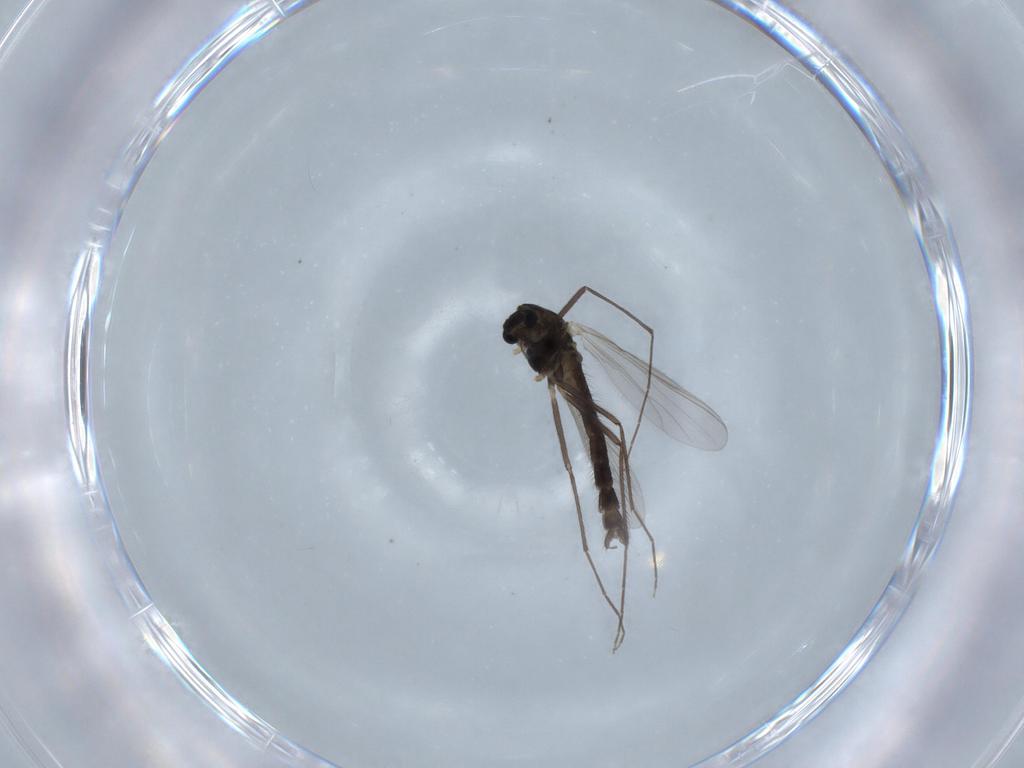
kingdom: Animalia
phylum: Arthropoda
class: Insecta
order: Diptera
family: Chironomidae
